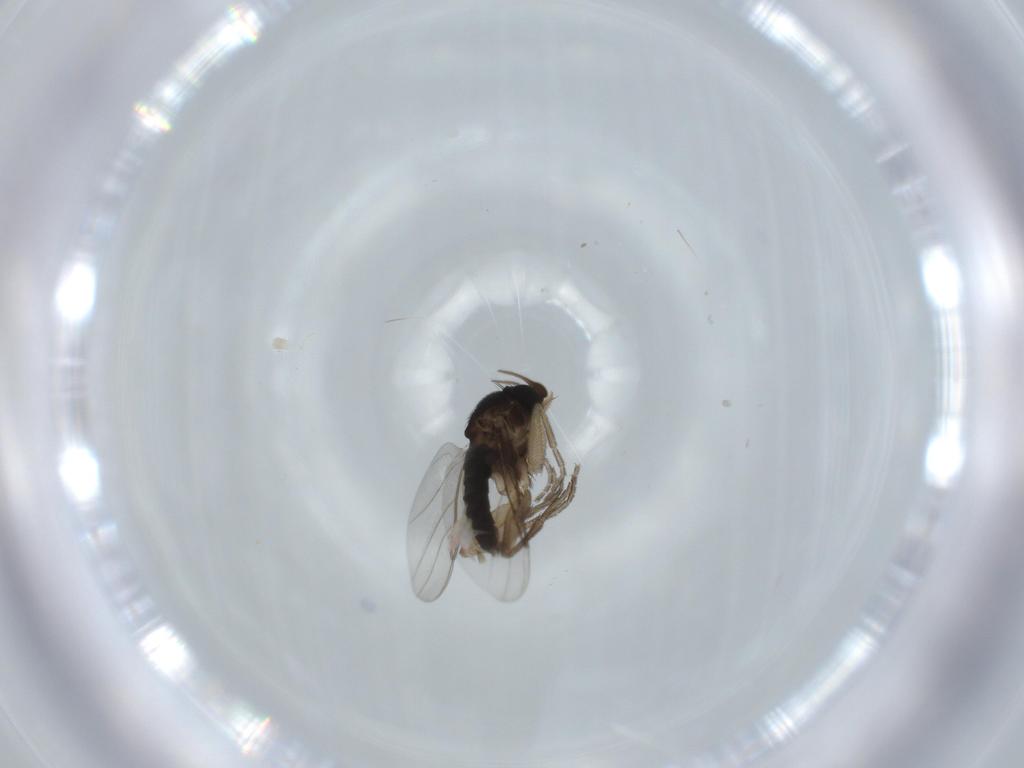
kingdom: Animalia
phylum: Arthropoda
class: Insecta
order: Diptera
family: Phoridae
